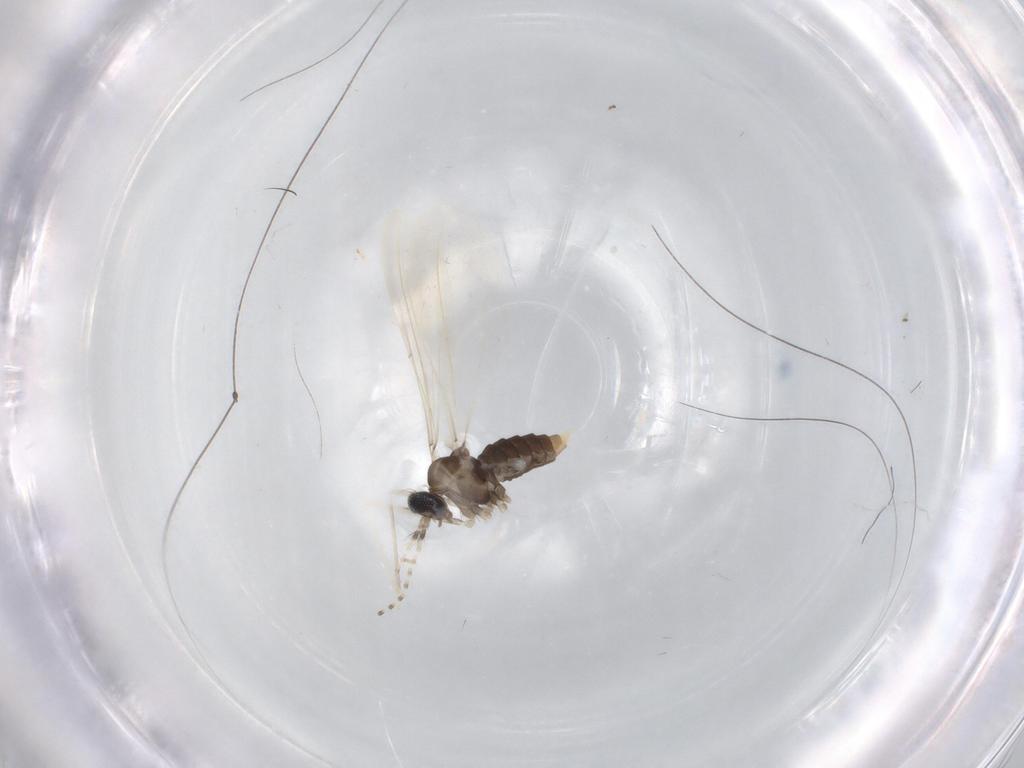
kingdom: Animalia
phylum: Arthropoda
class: Insecta
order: Diptera
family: Cecidomyiidae
